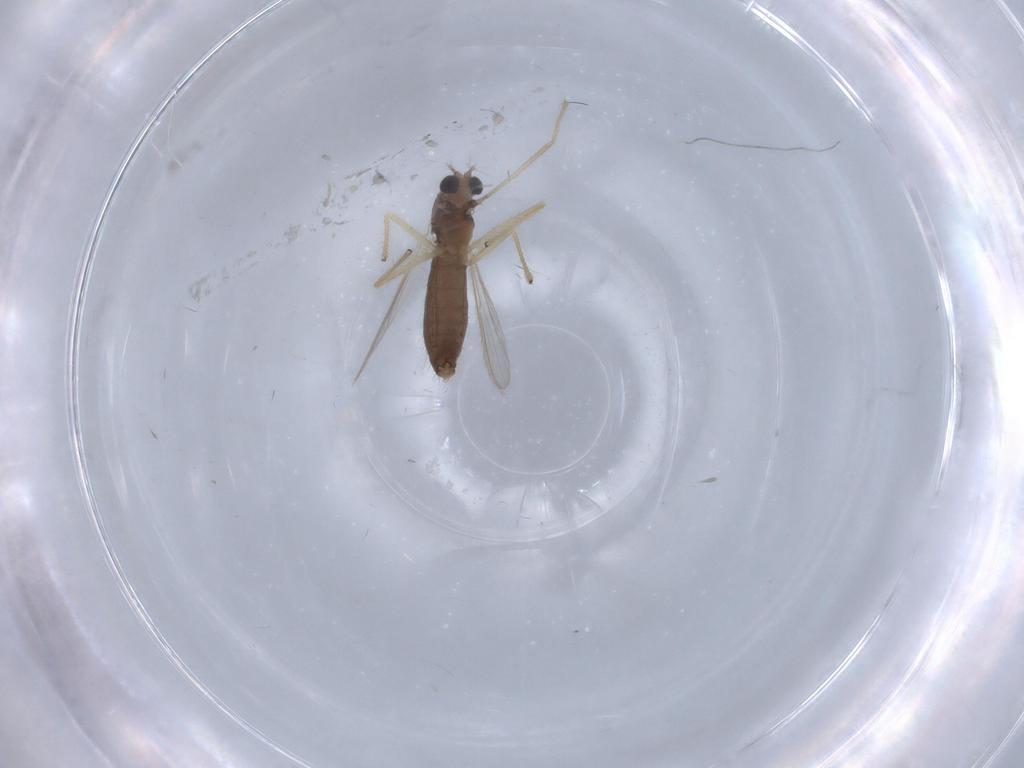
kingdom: Animalia
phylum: Arthropoda
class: Insecta
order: Diptera
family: Chironomidae
